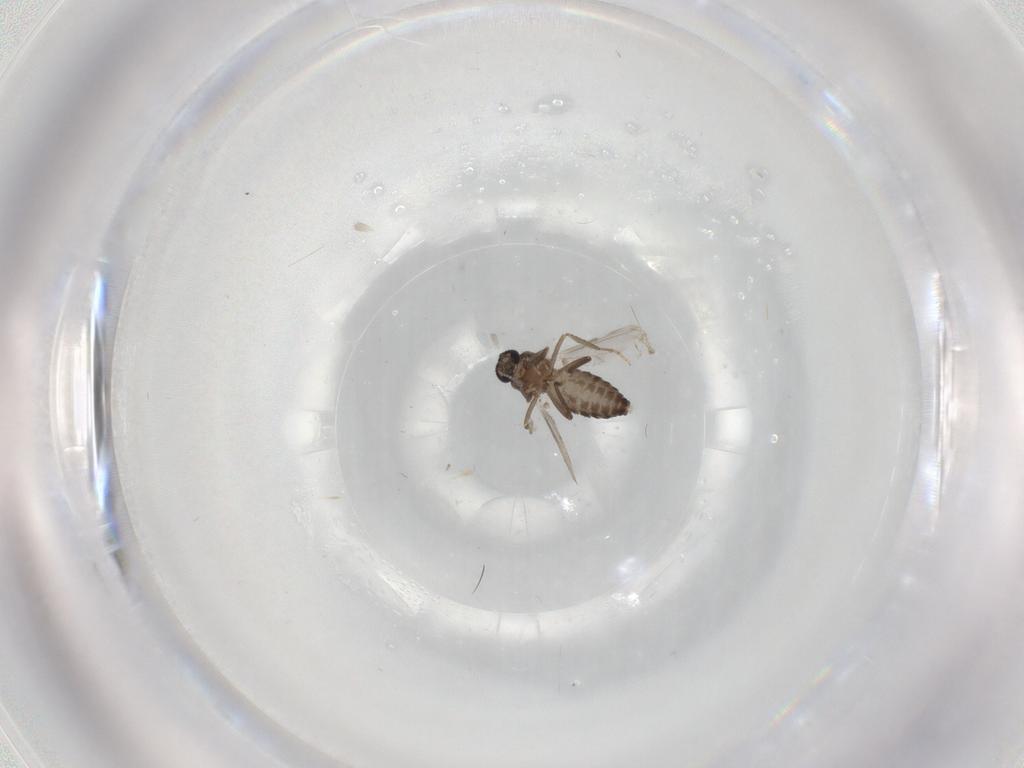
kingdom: Animalia
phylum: Arthropoda
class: Insecta
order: Diptera
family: Ceratopogonidae
